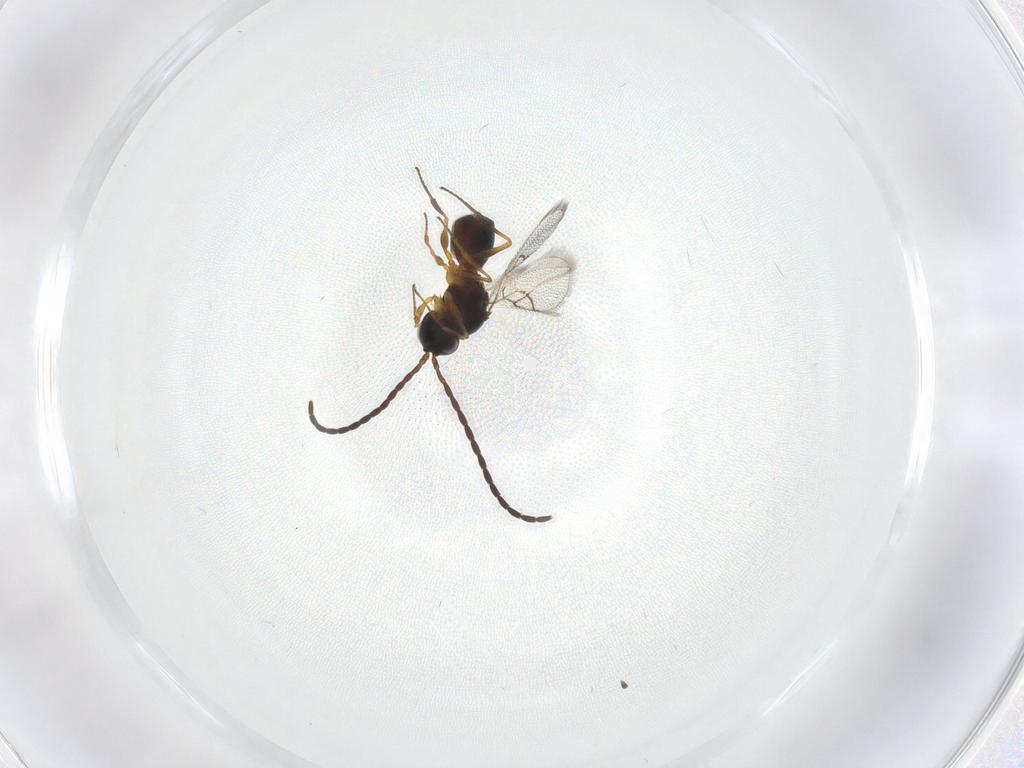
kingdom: Animalia
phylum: Arthropoda
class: Insecta
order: Hymenoptera
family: Figitidae
